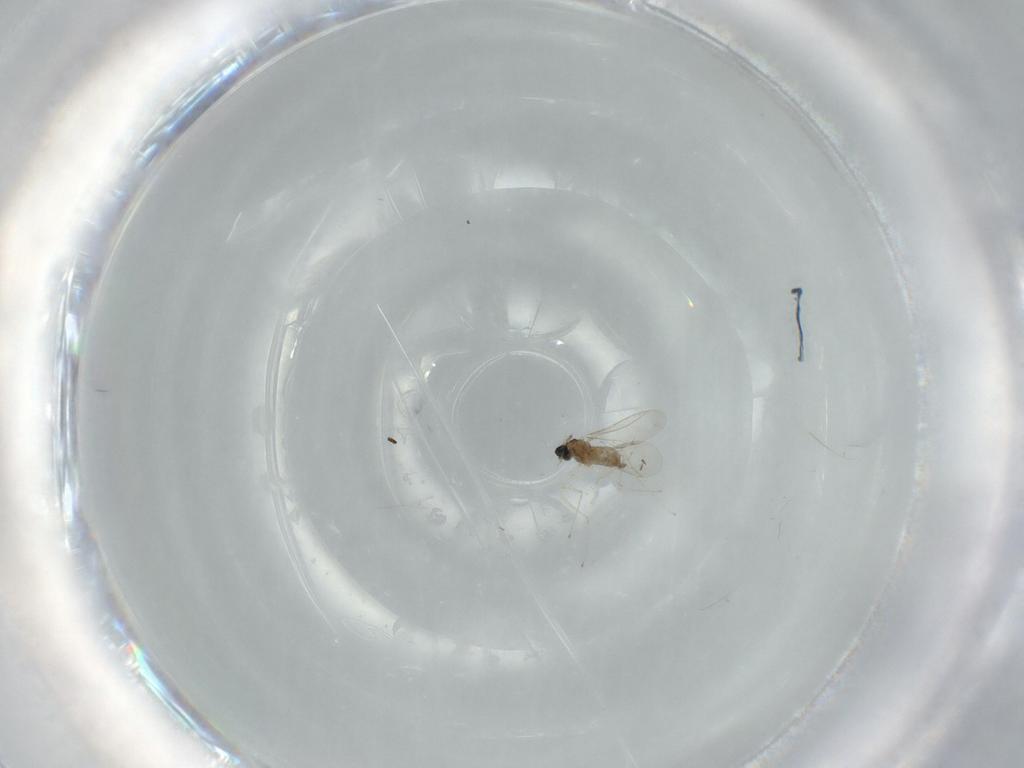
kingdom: Animalia
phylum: Arthropoda
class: Insecta
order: Diptera
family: Cecidomyiidae
